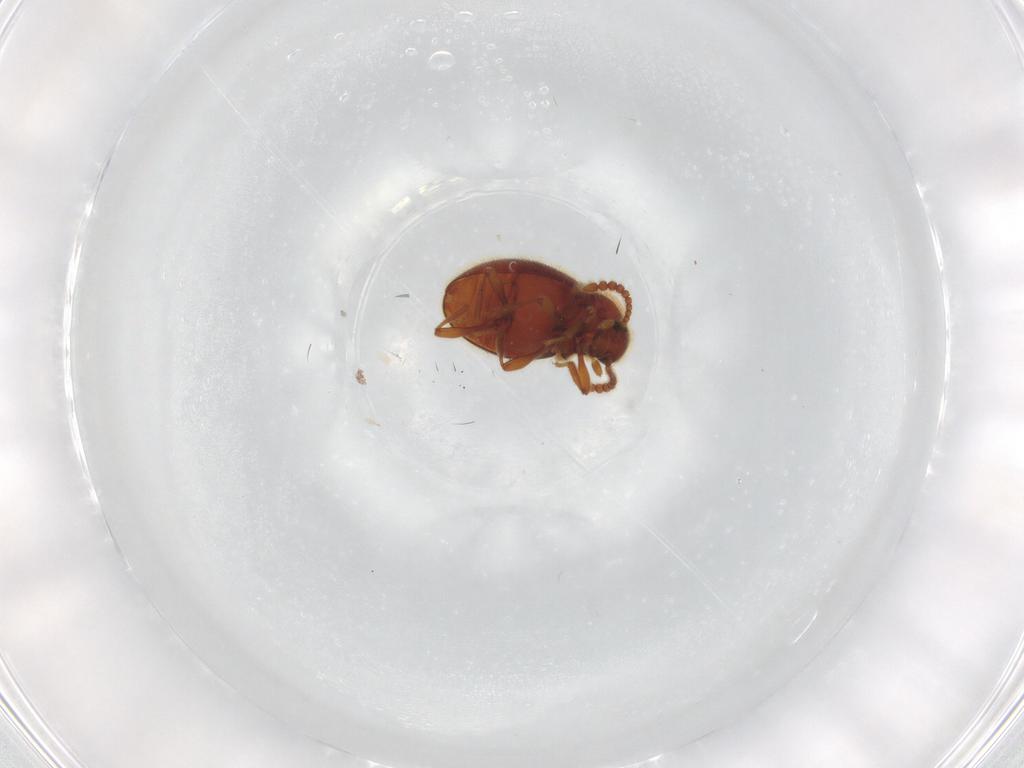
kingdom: Animalia
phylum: Arthropoda
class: Insecta
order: Coleoptera
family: Staphylinidae
